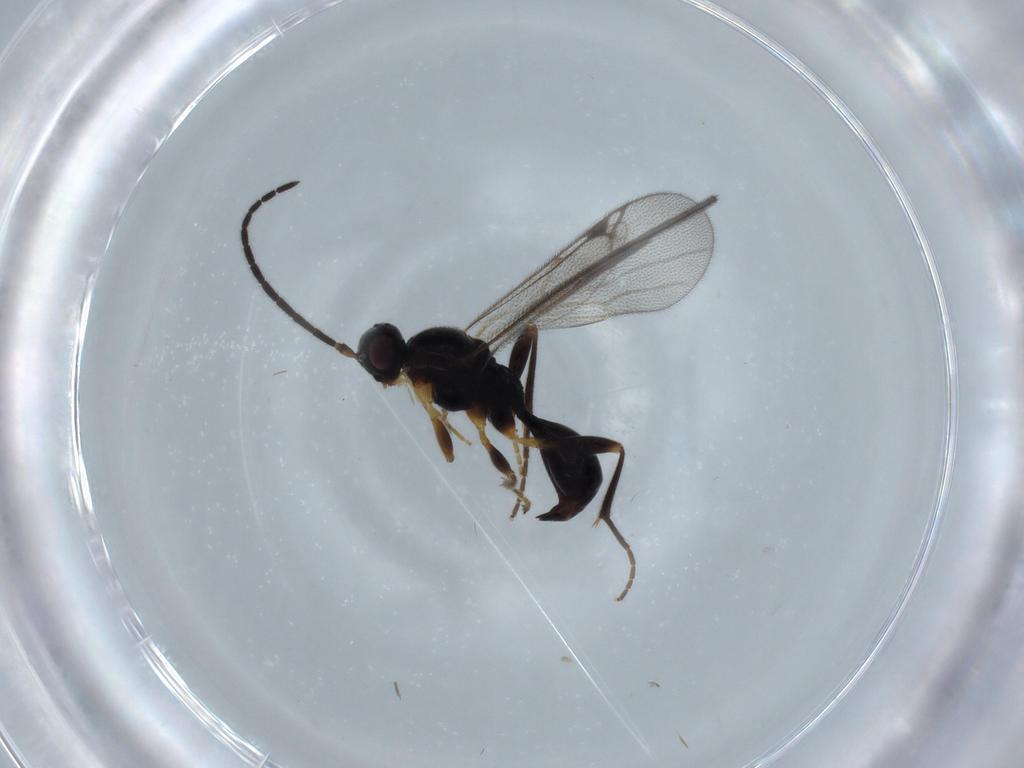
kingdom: Animalia
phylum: Arthropoda
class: Insecta
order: Hymenoptera
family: Proctotrupidae
